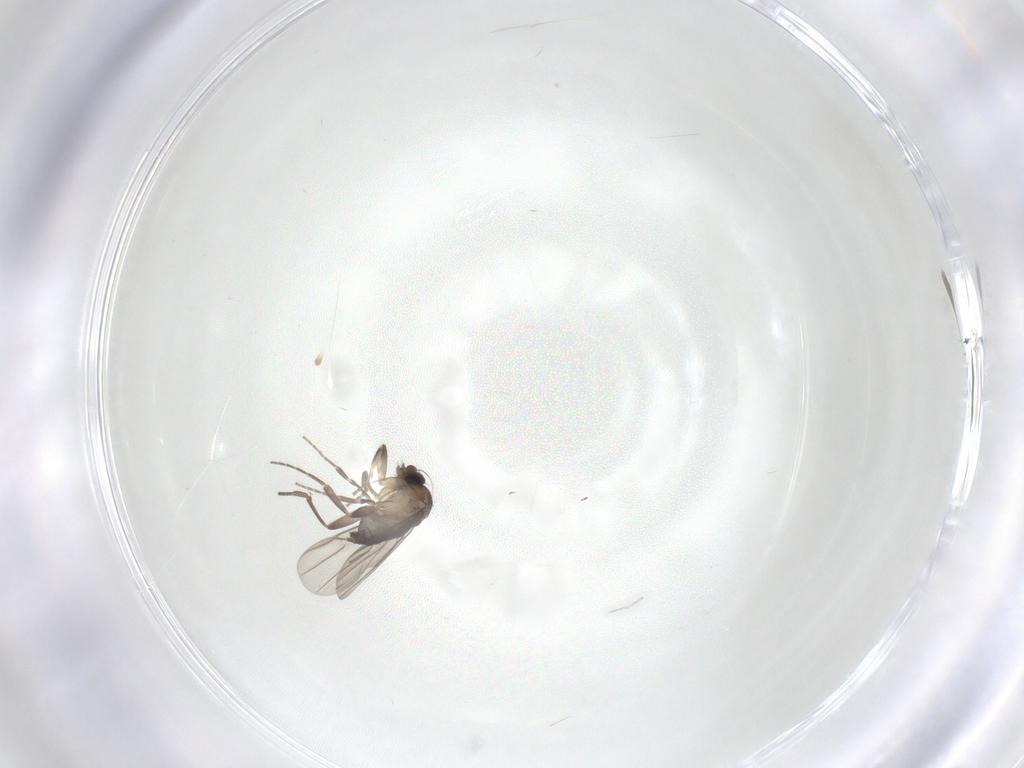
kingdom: Animalia
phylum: Arthropoda
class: Insecta
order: Diptera
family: Phoridae
